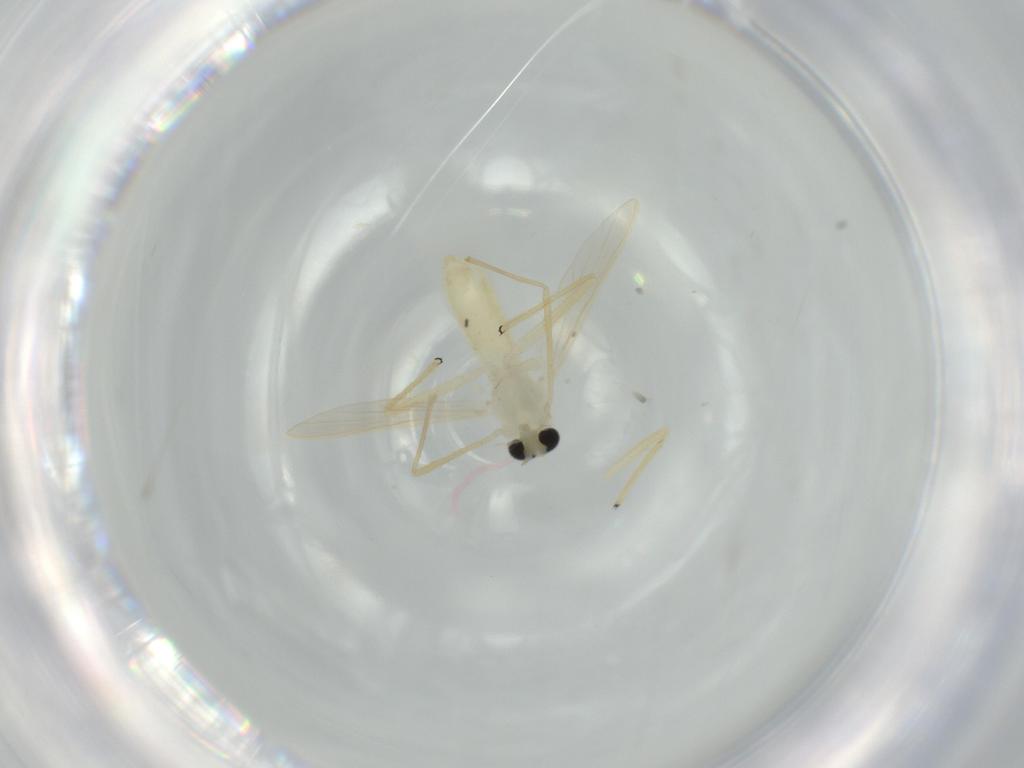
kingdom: Animalia
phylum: Arthropoda
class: Insecta
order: Diptera
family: Chironomidae
